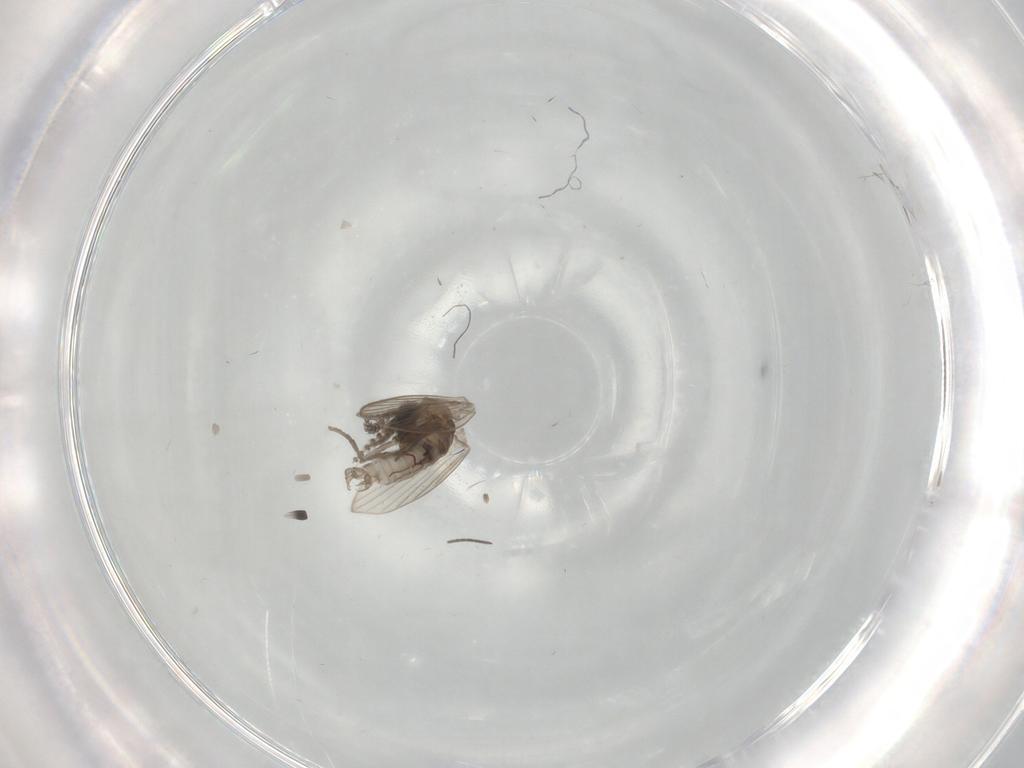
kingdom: Animalia
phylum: Arthropoda
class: Insecta
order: Diptera
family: Psychodidae
